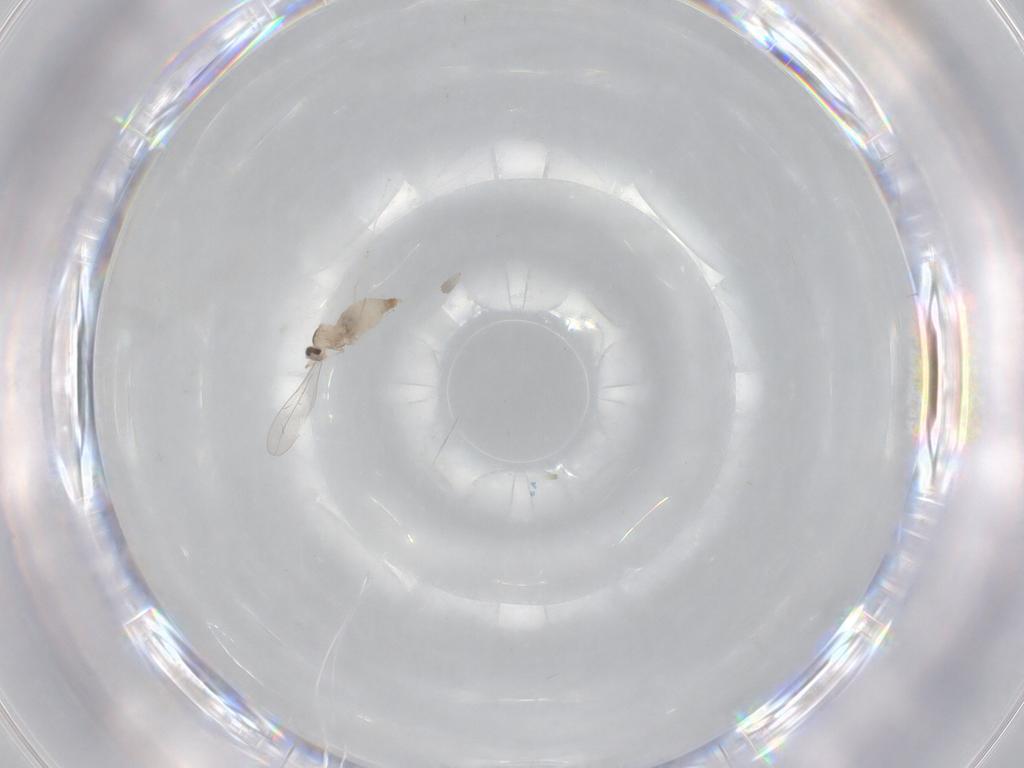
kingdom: Animalia
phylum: Arthropoda
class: Insecta
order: Diptera
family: Cecidomyiidae
